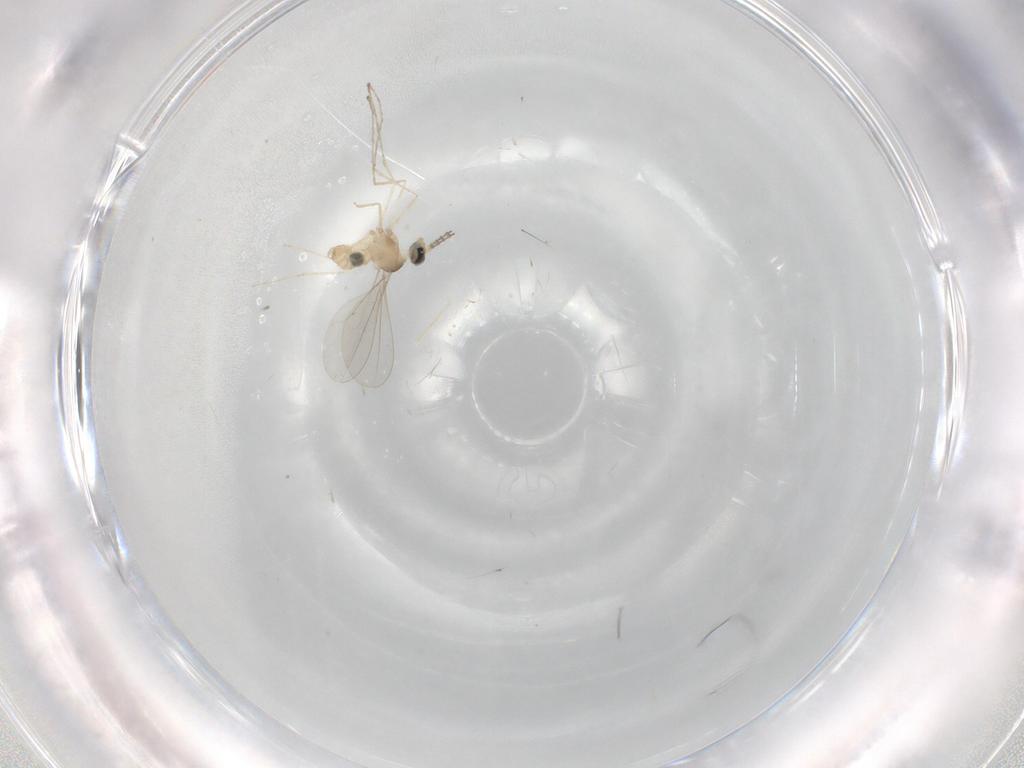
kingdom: Animalia
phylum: Arthropoda
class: Insecta
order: Diptera
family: Cecidomyiidae
